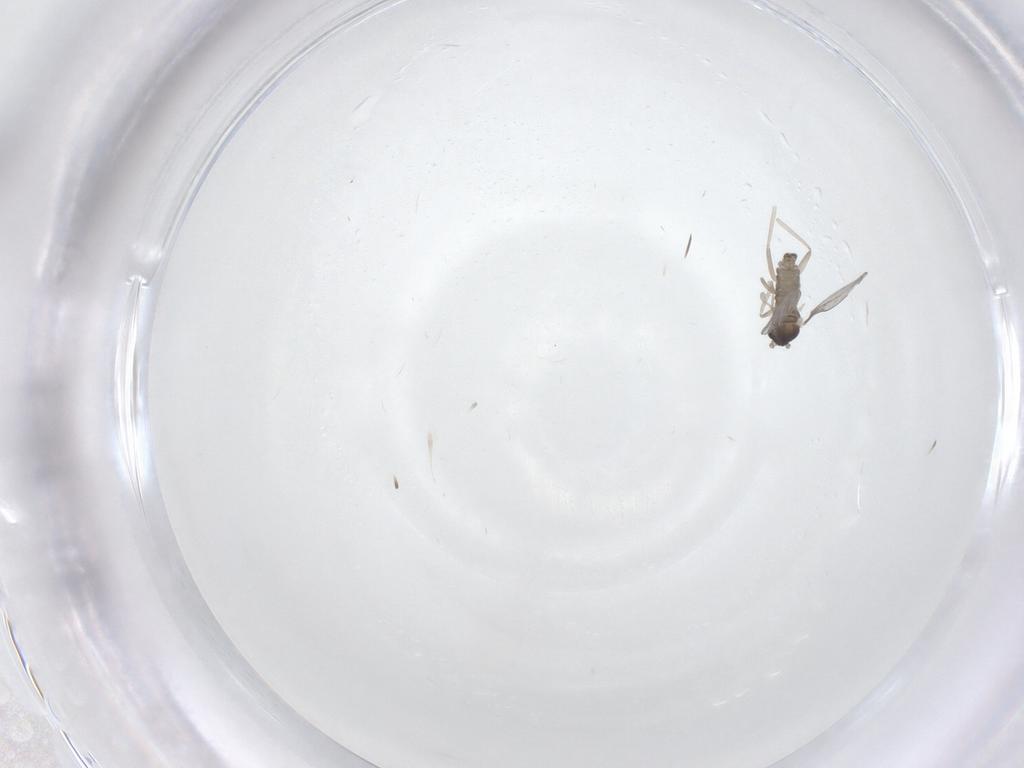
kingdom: Animalia
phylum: Arthropoda
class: Insecta
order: Diptera
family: Cecidomyiidae
